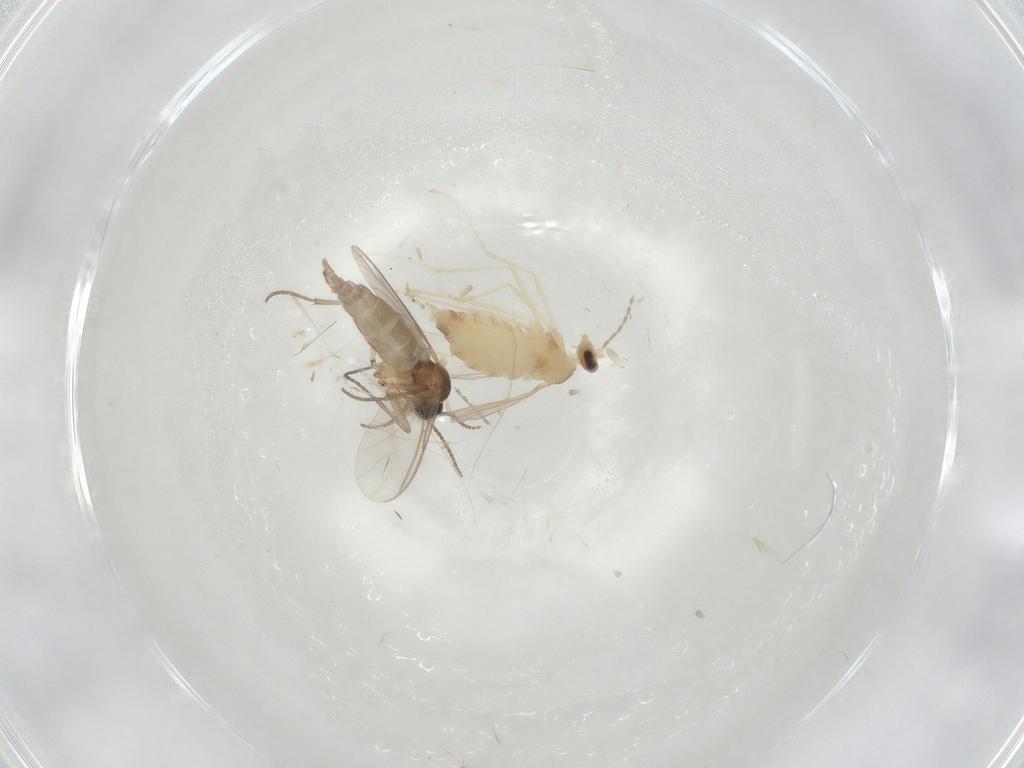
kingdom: Animalia
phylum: Arthropoda
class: Insecta
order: Diptera
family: Cecidomyiidae
